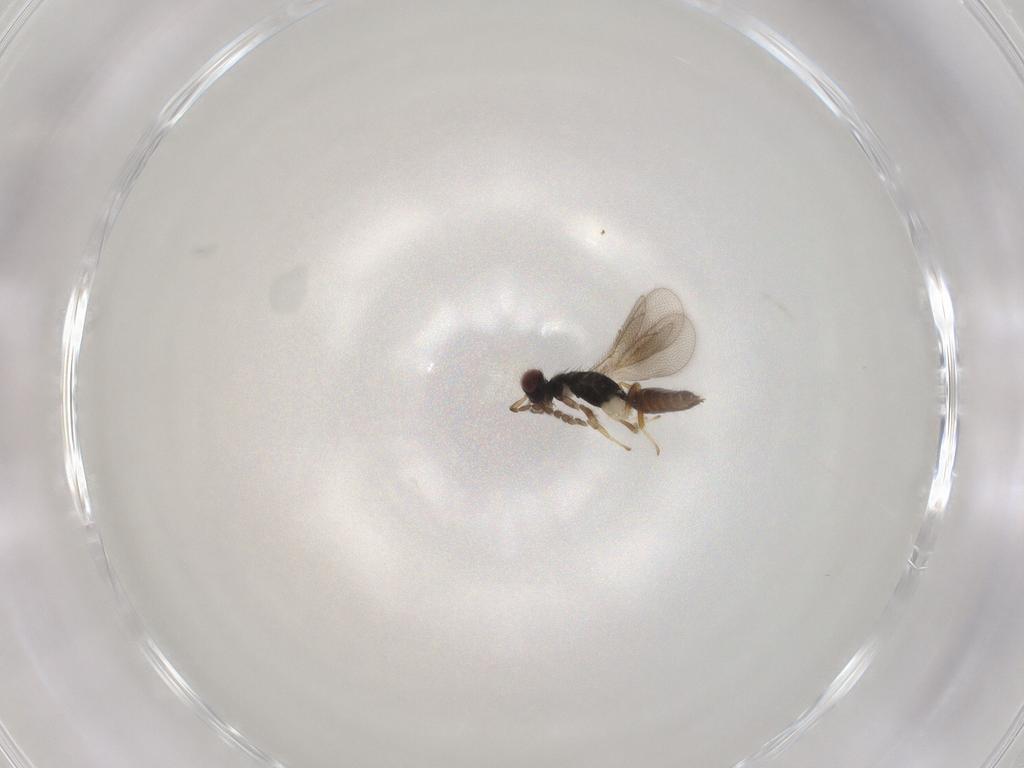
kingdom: Animalia
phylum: Arthropoda
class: Insecta
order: Hymenoptera
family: Eulophidae
